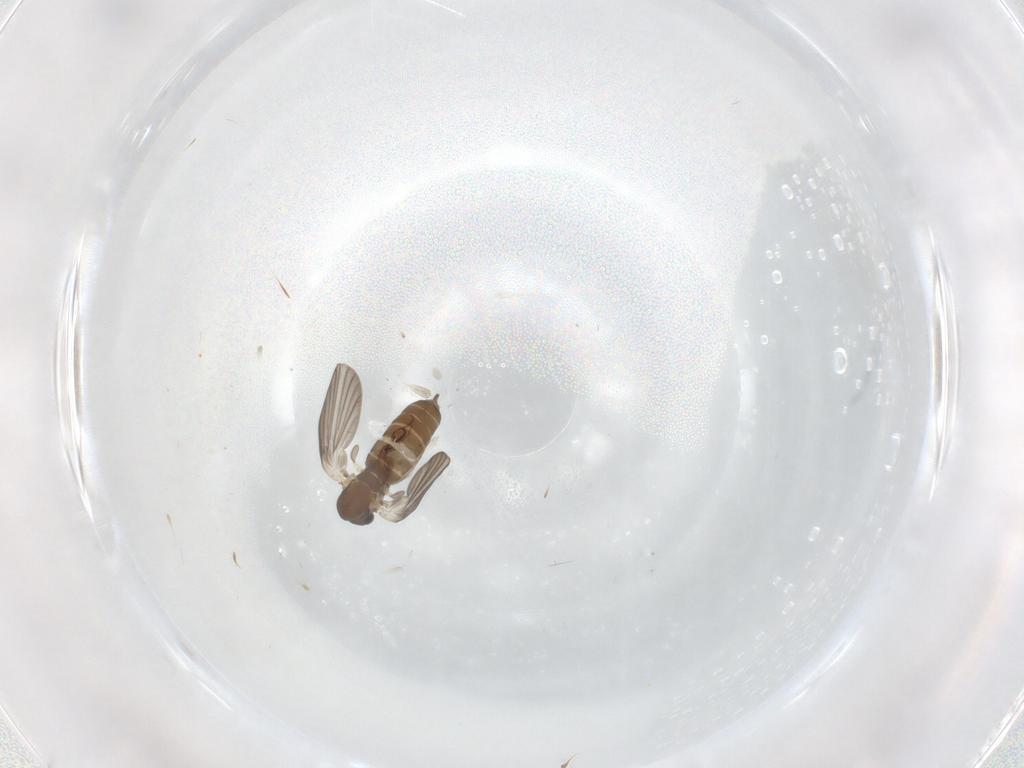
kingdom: Animalia
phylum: Arthropoda
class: Insecta
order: Diptera
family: Psychodidae
